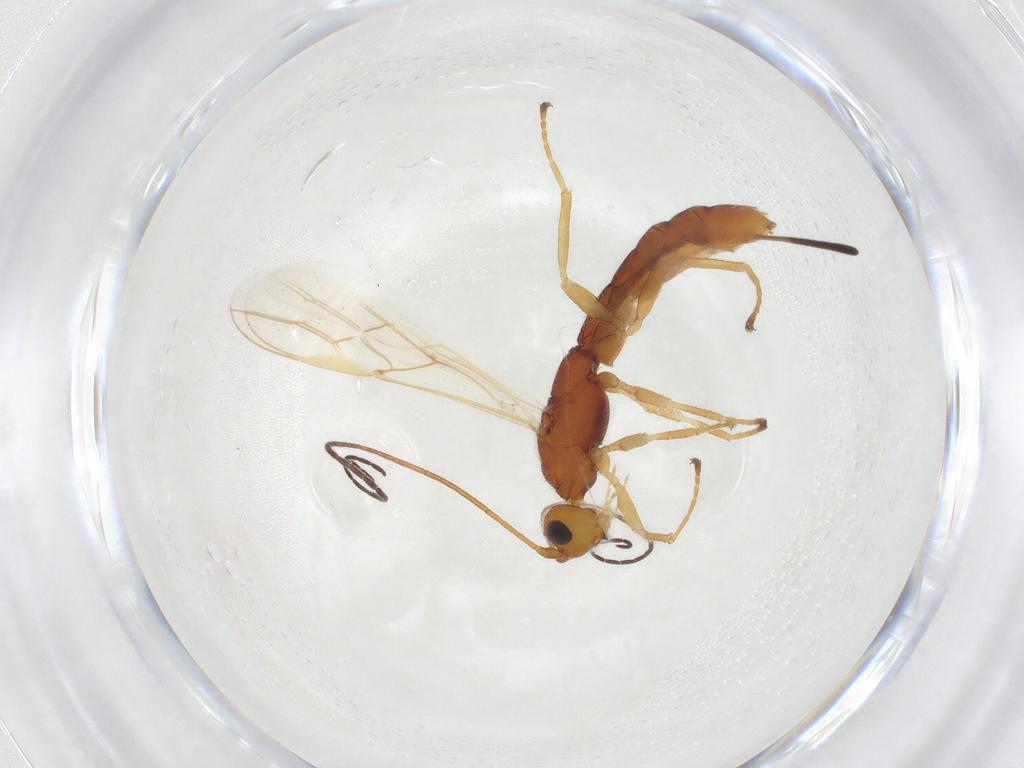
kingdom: Animalia
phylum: Arthropoda
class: Insecta
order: Hymenoptera
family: Braconidae
